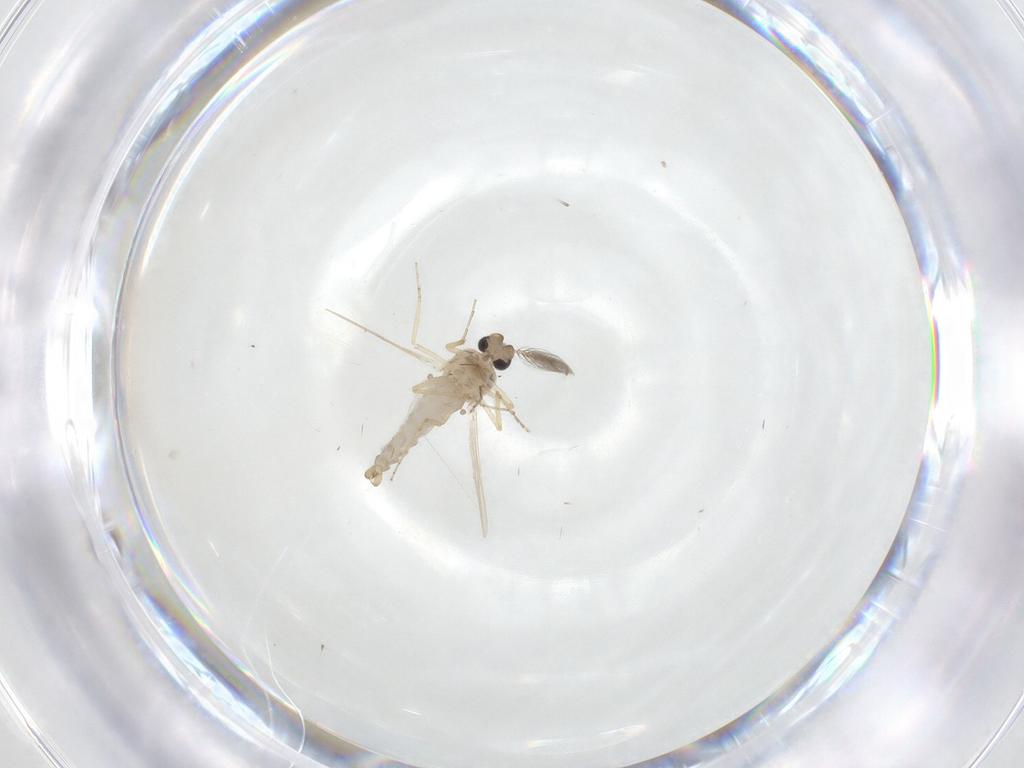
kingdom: Animalia
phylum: Arthropoda
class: Insecta
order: Diptera
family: Ceratopogonidae
